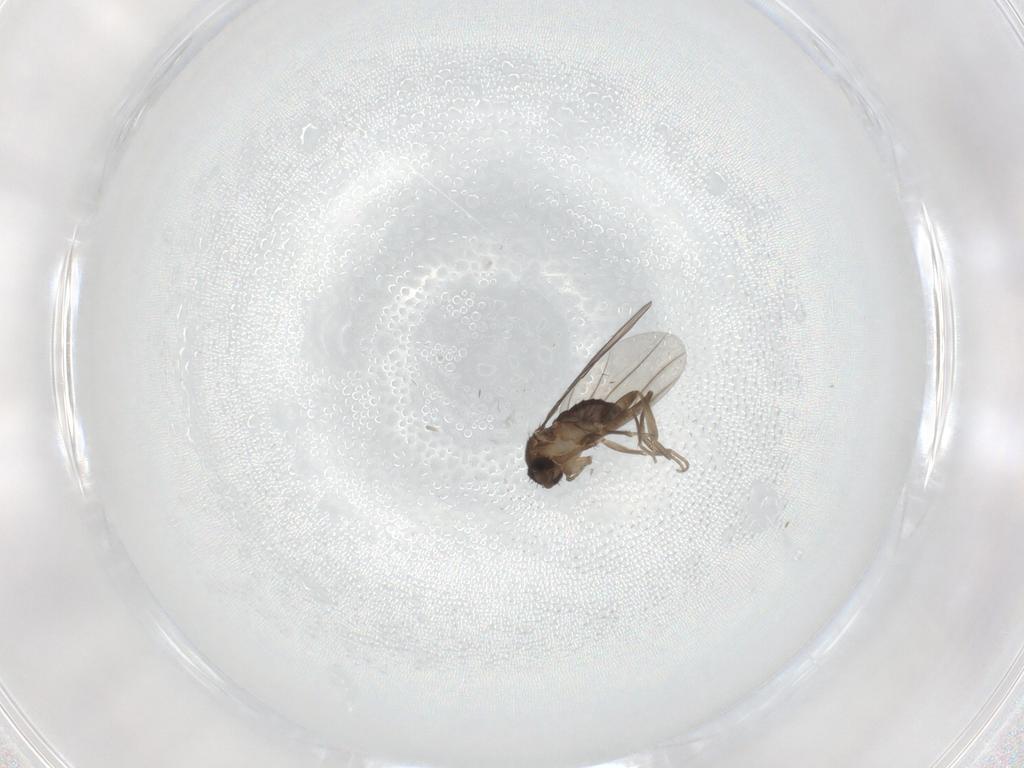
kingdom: Animalia
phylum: Arthropoda
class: Insecta
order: Diptera
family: Phoridae
